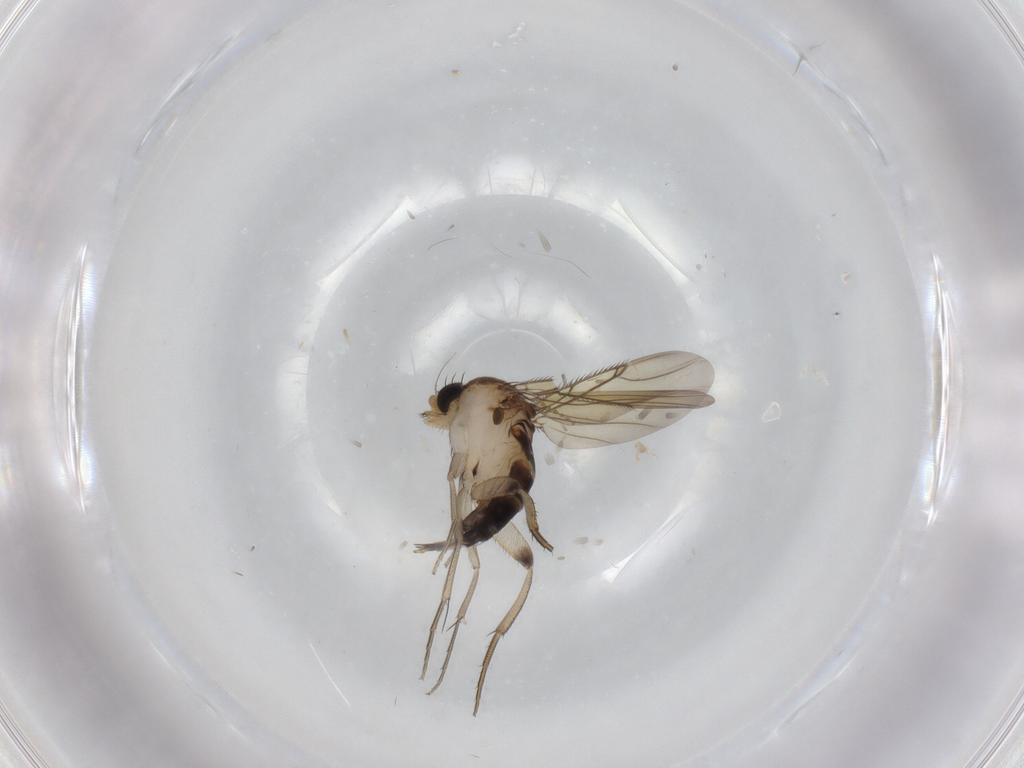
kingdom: Animalia
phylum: Arthropoda
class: Insecta
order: Diptera
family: Phoridae
